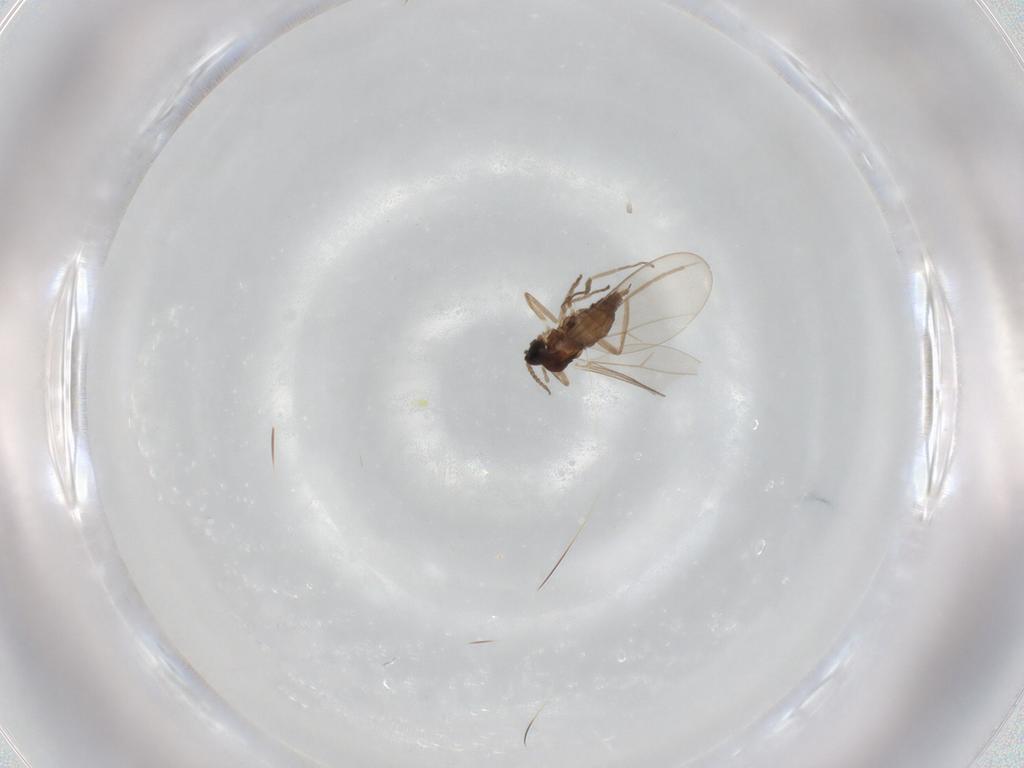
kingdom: Animalia
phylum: Arthropoda
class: Insecta
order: Diptera
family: Cecidomyiidae
